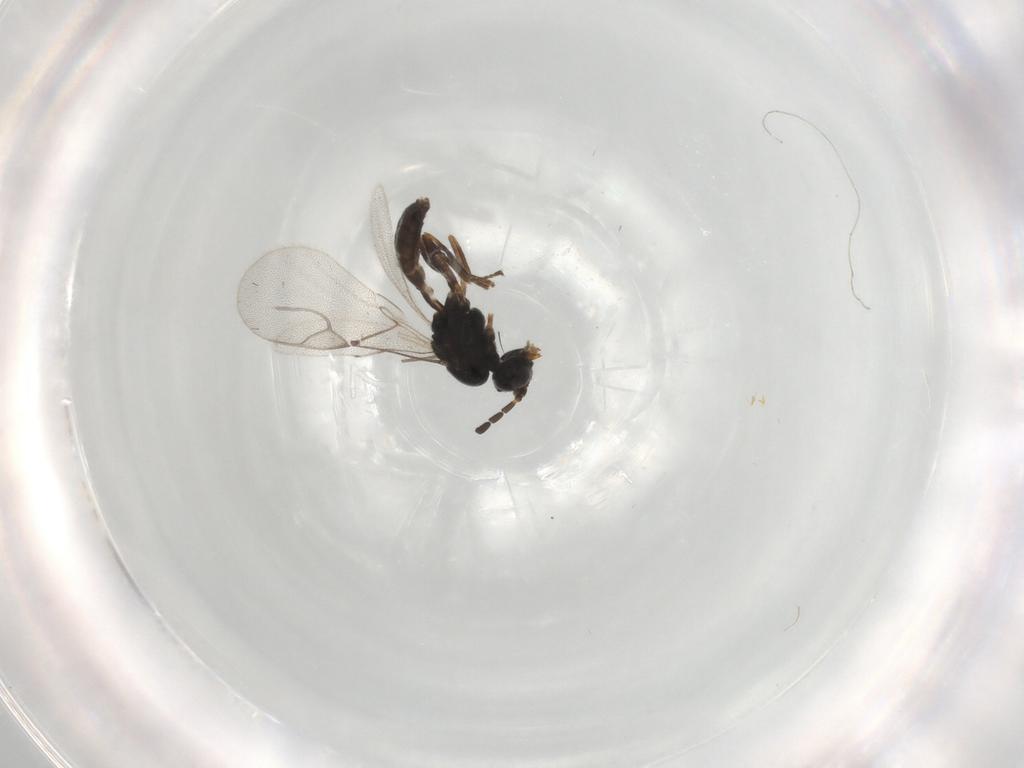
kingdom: Animalia
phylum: Arthropoda
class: Insecta
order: Hymenoptera
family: Braconidae
